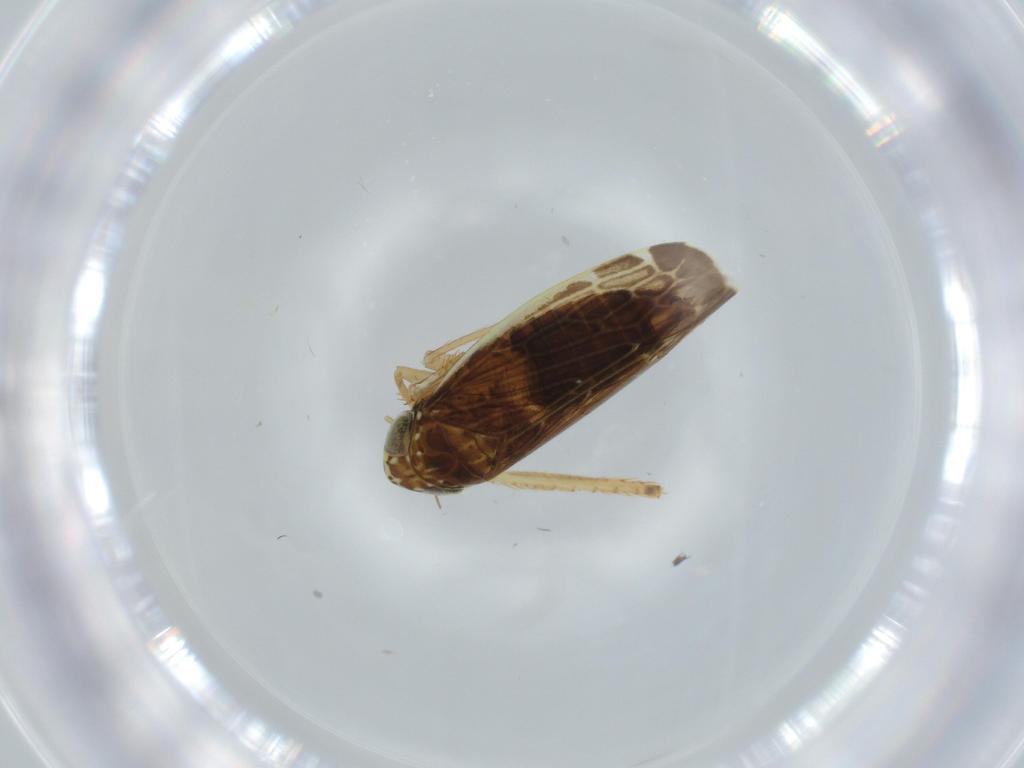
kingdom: Animalia
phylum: Arthropoda
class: Insecta
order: Hemiptera
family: Cicadellidae
